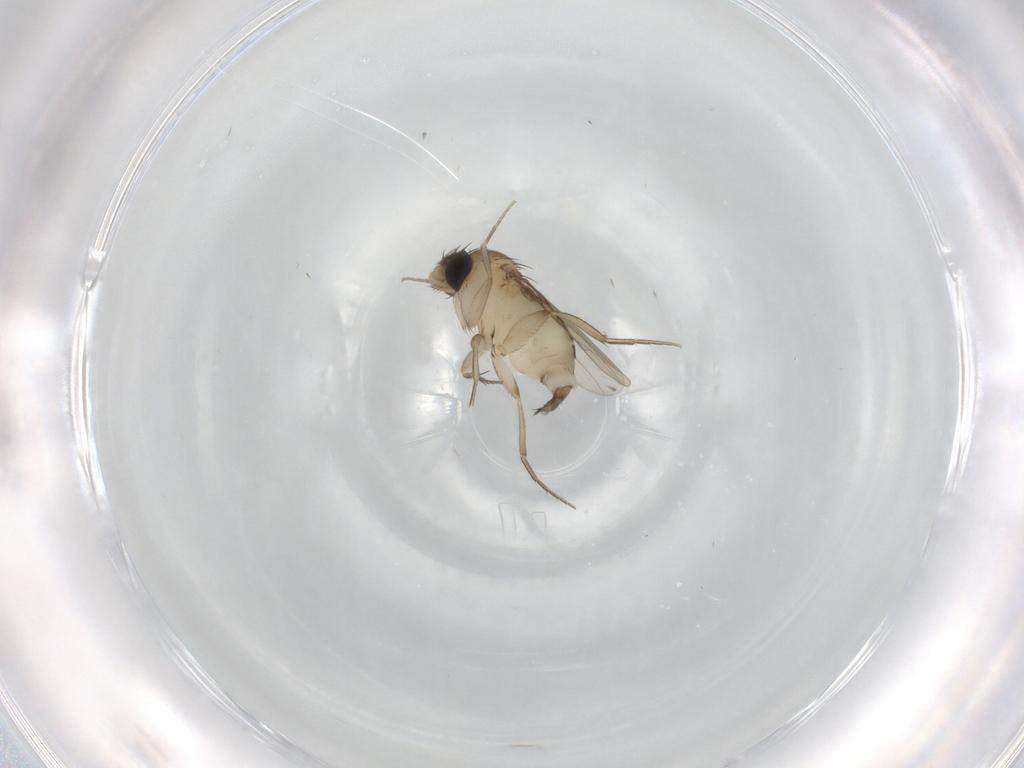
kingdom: Animalia
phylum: Arthropoda
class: Insecta
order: Diptera
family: Phoridae
